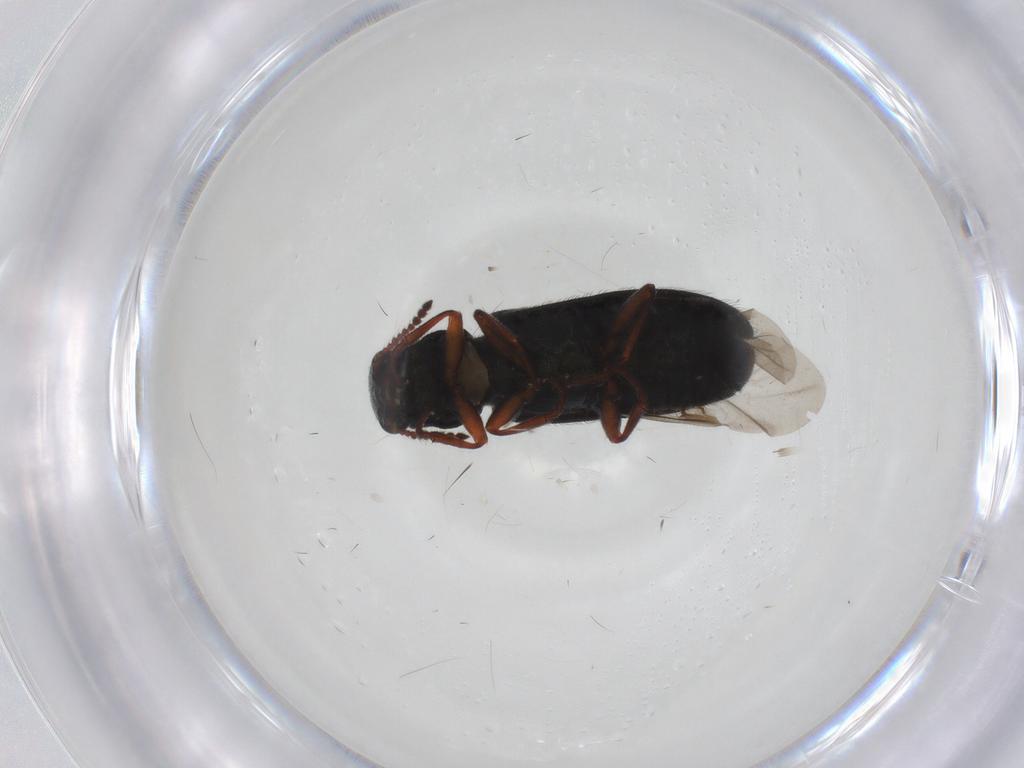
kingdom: Animalia
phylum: Arthropoda
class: Insecta
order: Coleoptera
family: Melyridae
